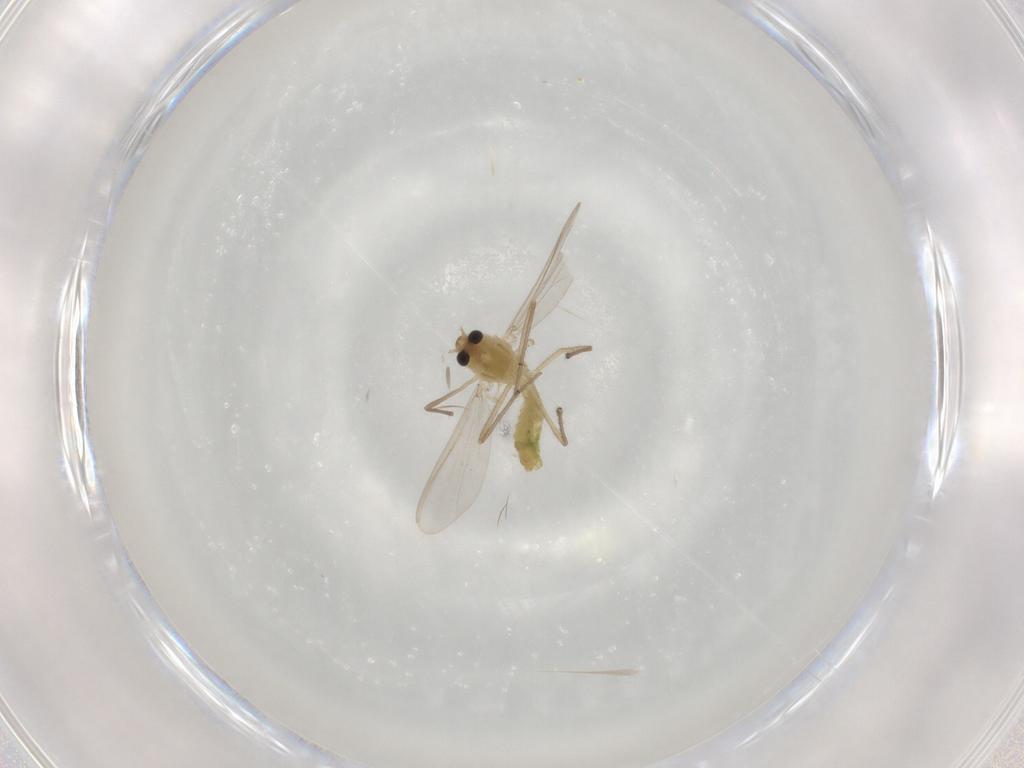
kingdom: Animalia
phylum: Arthropoda
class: Insecta
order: Diptera
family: Chironomidae
